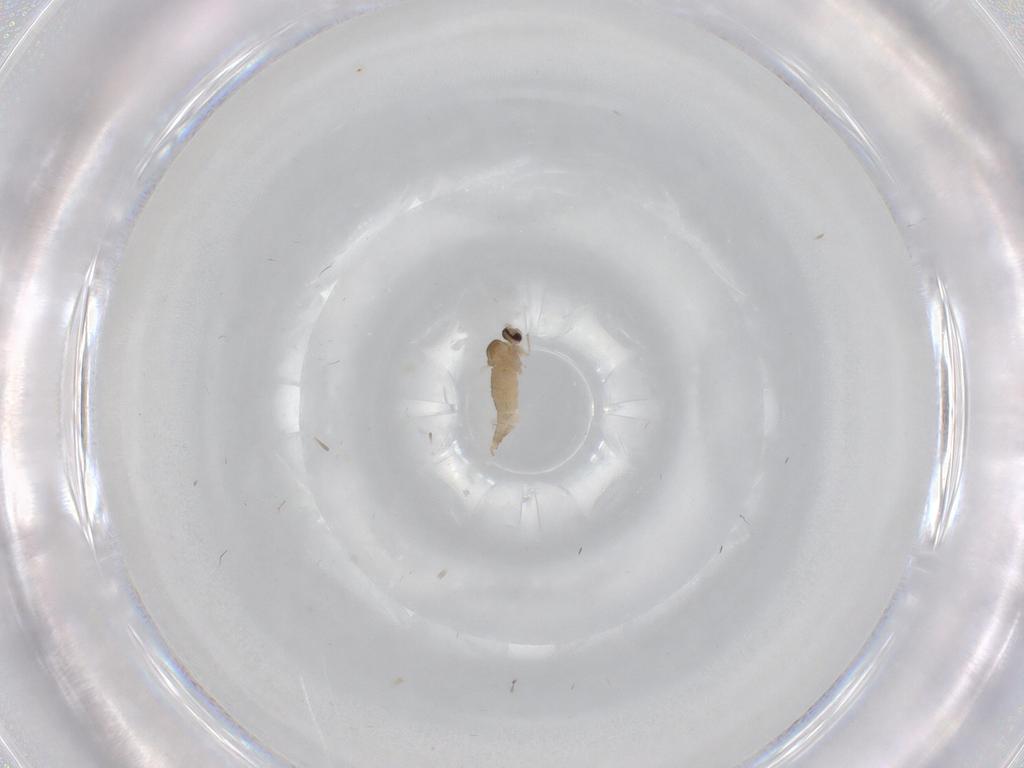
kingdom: Animalia
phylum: Arthropoda
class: Insecta
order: Diptera
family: Cecidomyiidae
